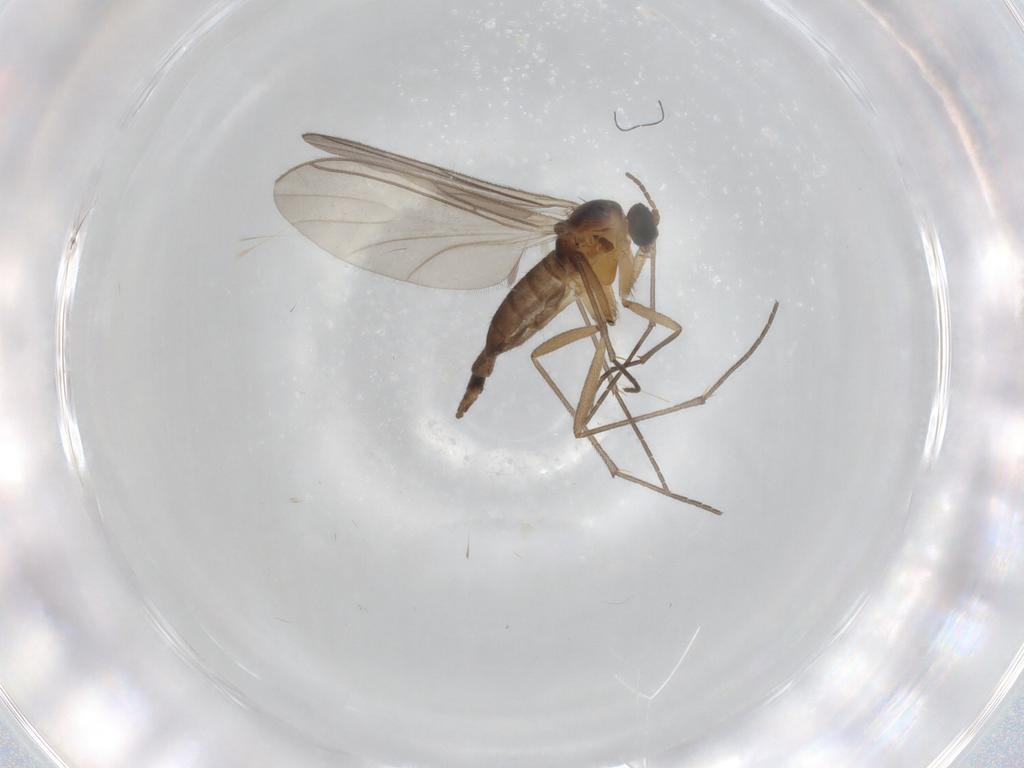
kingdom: Animalia
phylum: Arthropoda
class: Insecta
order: Diptera
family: Sciaridae
